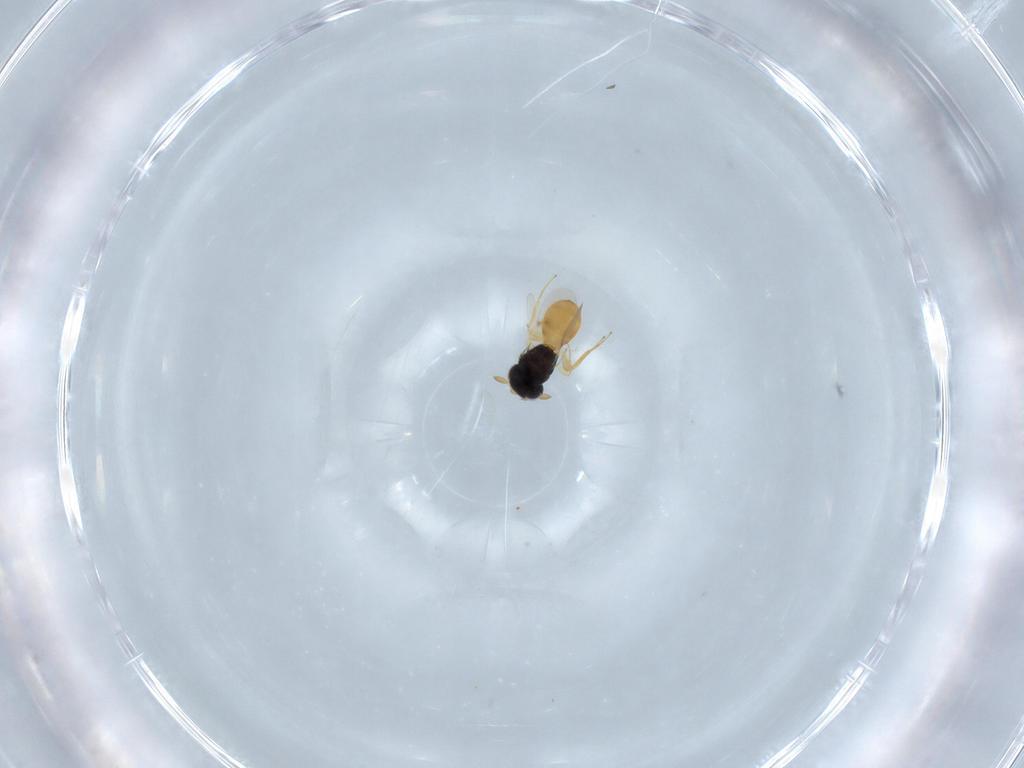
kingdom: Animalia
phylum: Arthropoda
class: Insecta
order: Hymenoptera
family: Scelionidae
